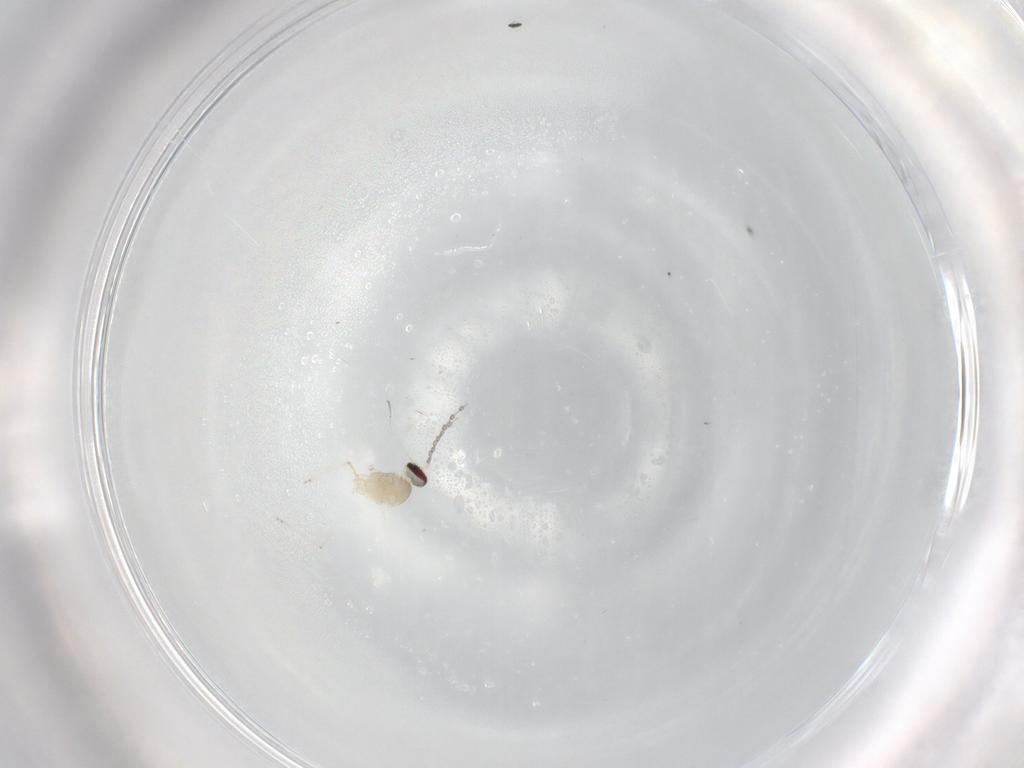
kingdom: Animalia
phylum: Arthropoda
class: Insecta
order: Diptera
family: Cecidomyiidae
